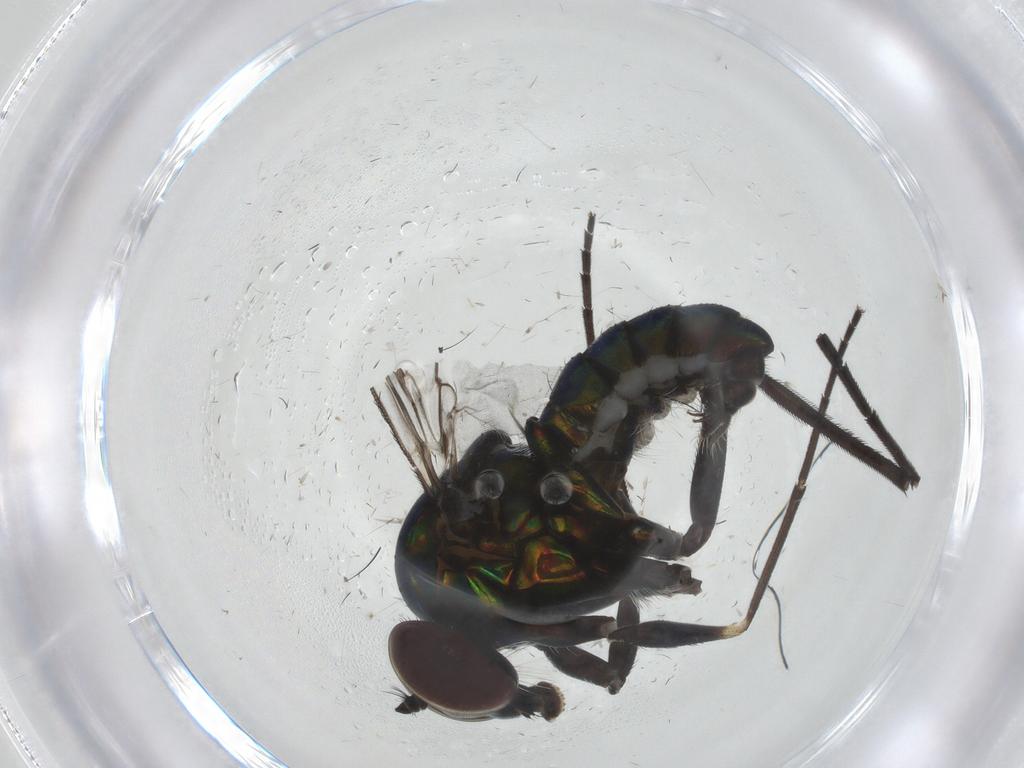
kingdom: Animalia
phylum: Arthropoda
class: Insecta
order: Diptera
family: Dolichopodidae
